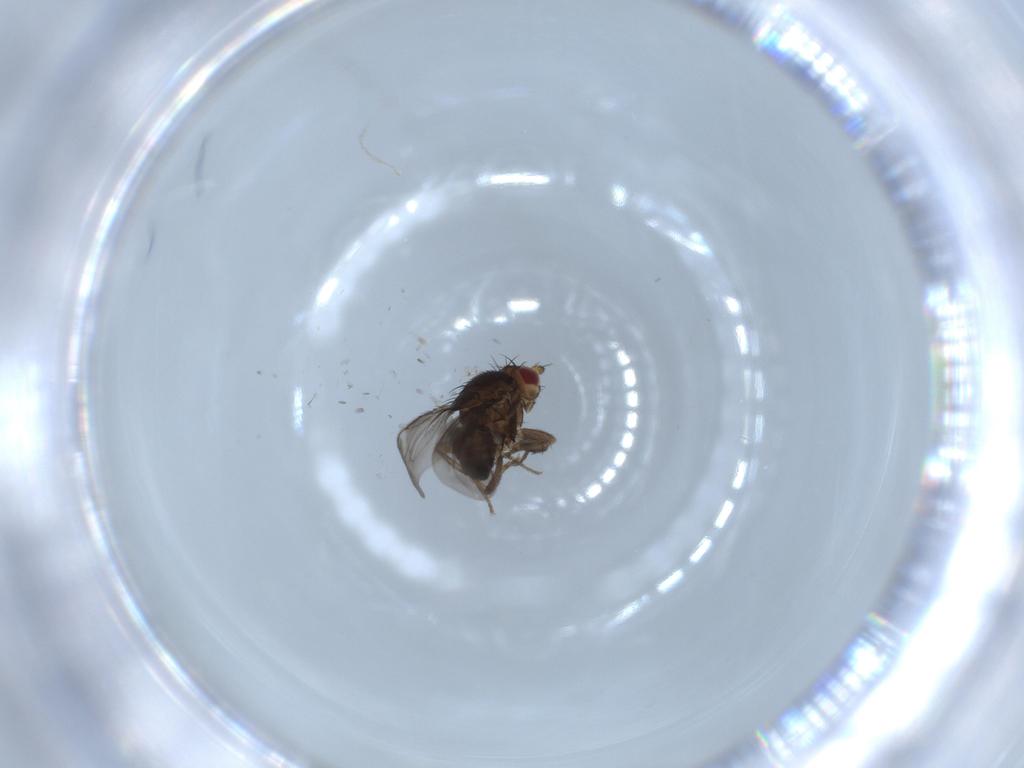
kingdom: Animalia
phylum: Arthropoda
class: Insecta
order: Diptera
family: Sphaeroceridae
